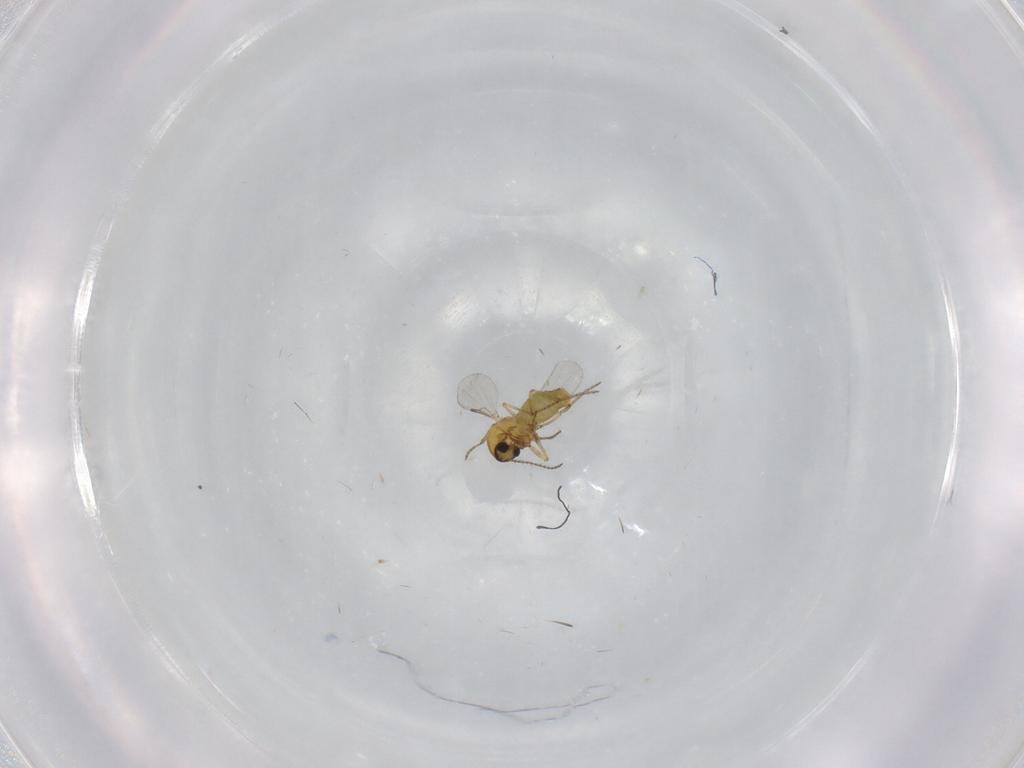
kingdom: Animalia
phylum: Arthropoda
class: Insecta
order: Diptera
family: Ceratopogonidae
